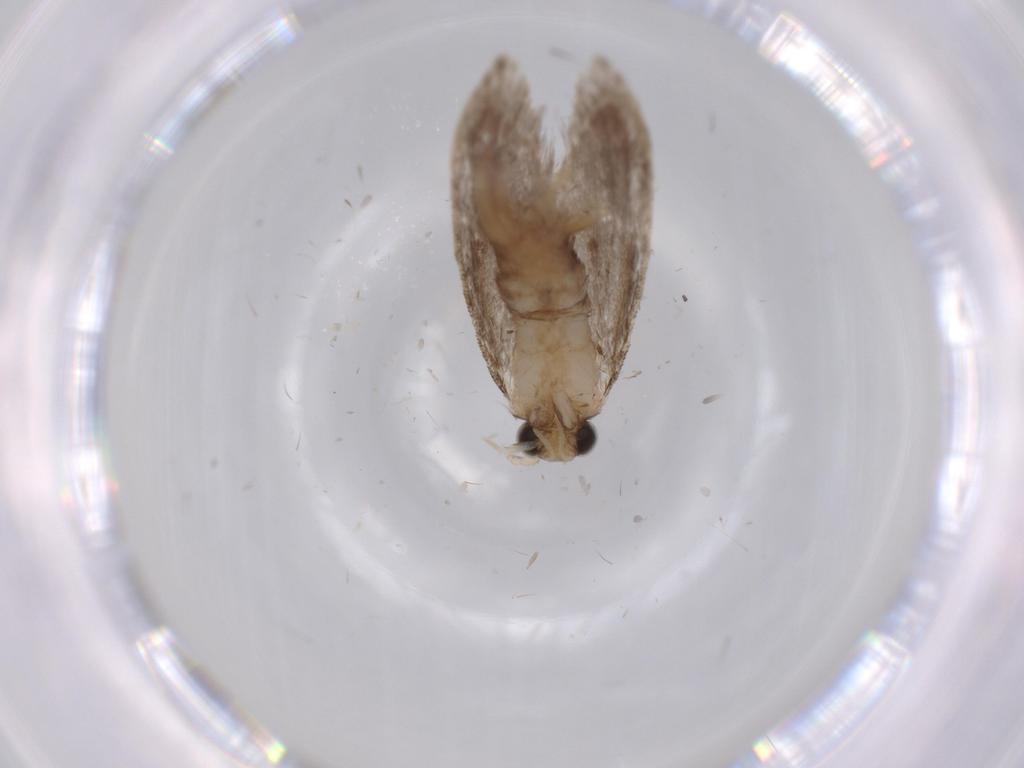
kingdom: Animalia
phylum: Arthropoda
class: Insecta
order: Lepidoptera
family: Tineidae
